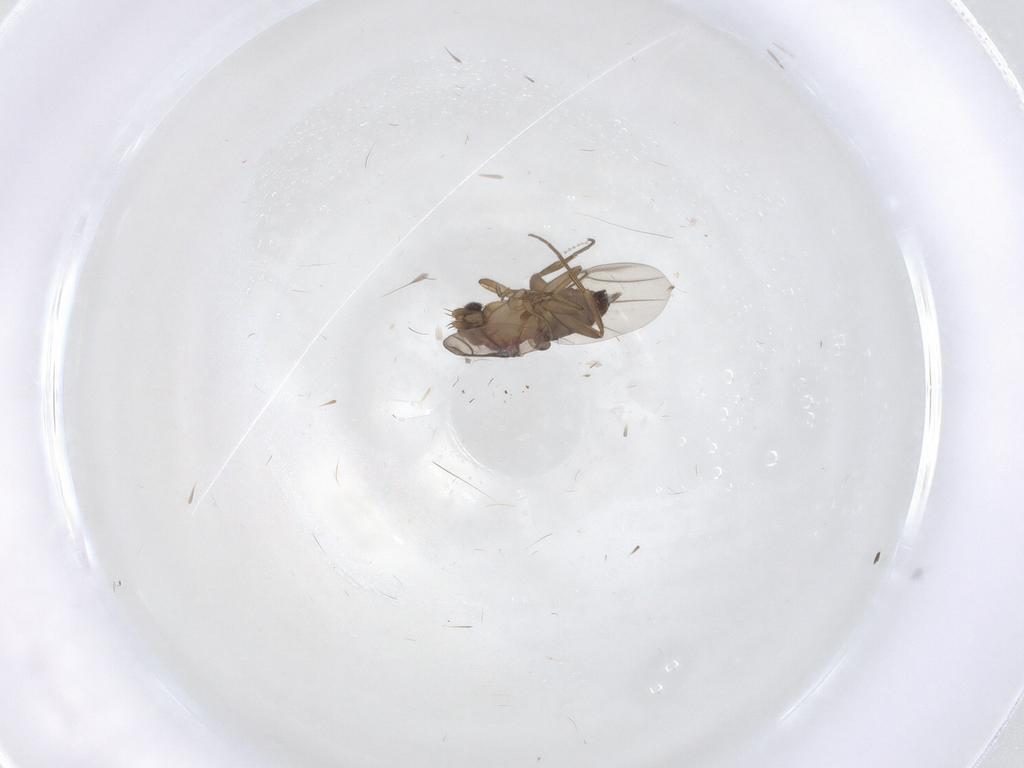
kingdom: Animalia
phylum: Arthropoda
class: Insecta
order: Diptera
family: Phoridae
